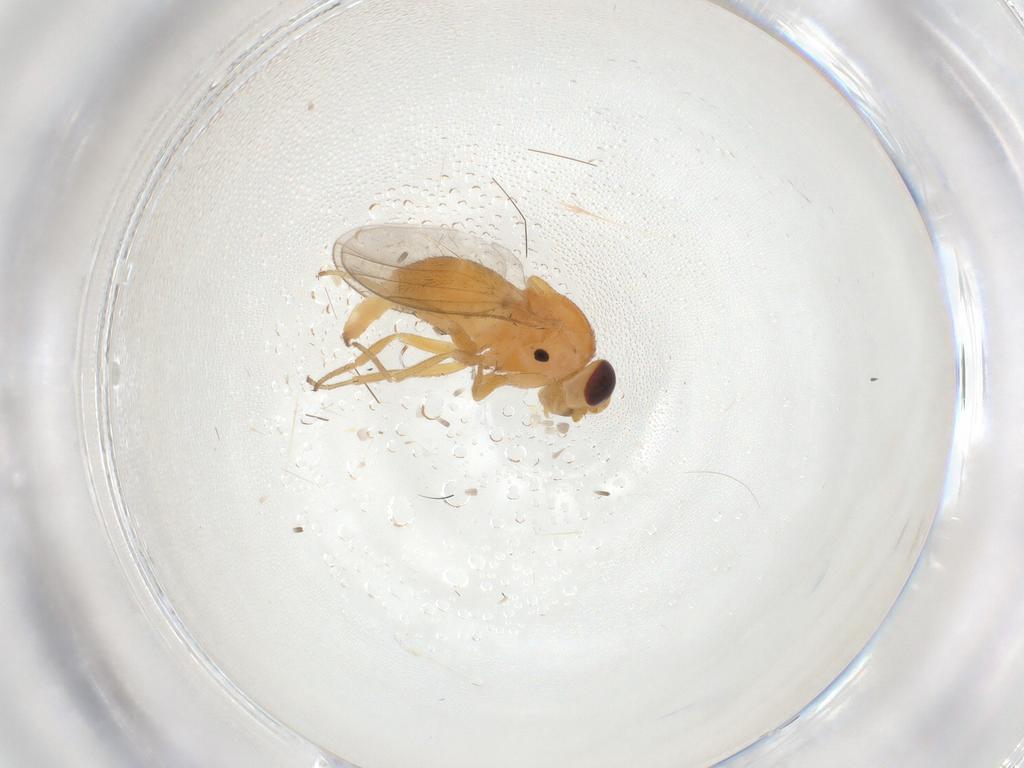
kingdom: Animalia
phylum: Arthropoda
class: Insecta
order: Diptera
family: Chloropidae
